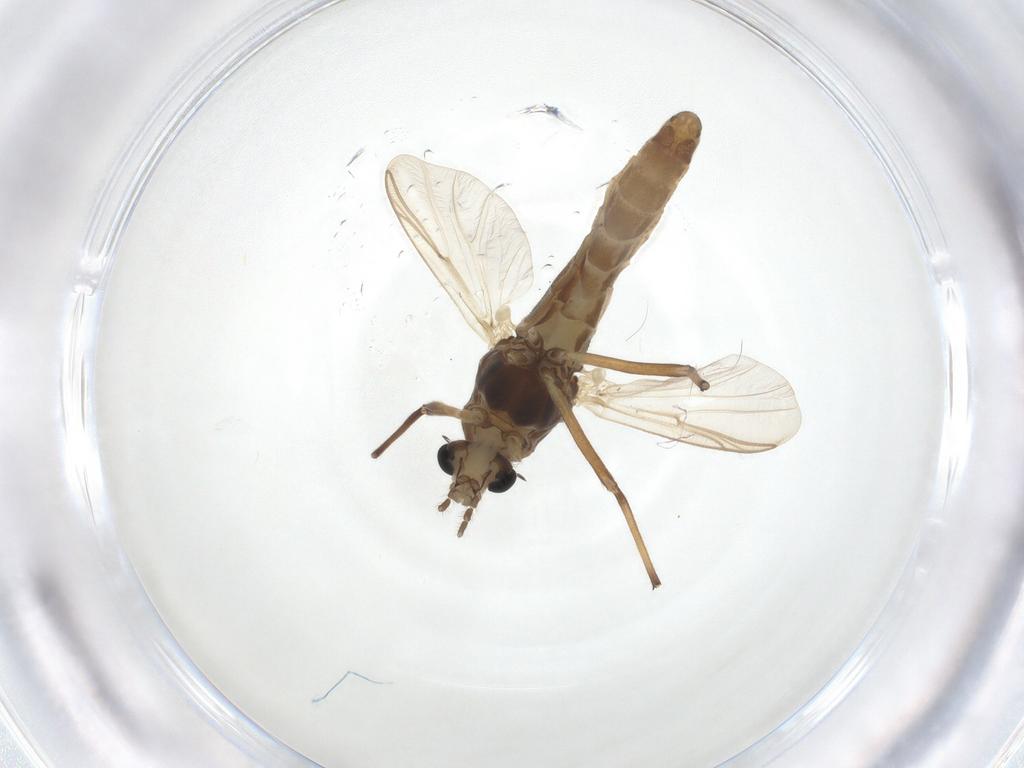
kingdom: Animalia
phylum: Arthropoda
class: Insecta
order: Diptera
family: Chironomidae
